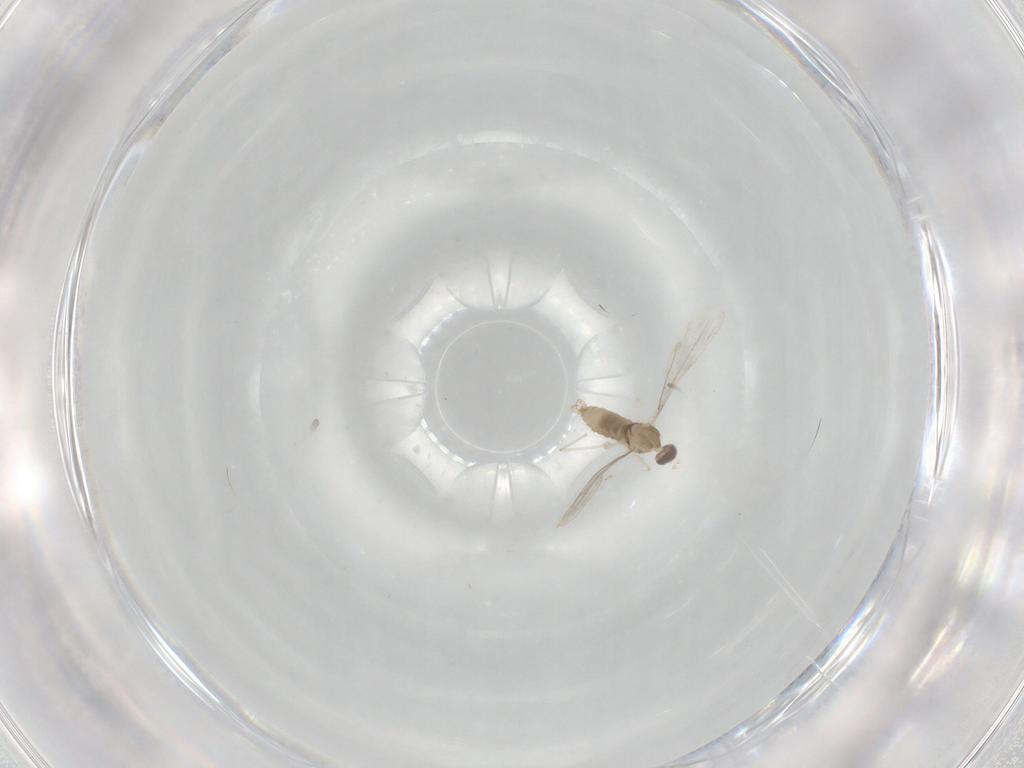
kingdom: Animalia
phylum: Arthropoda
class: Insecta
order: Diptera
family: Cecidomyiidae
